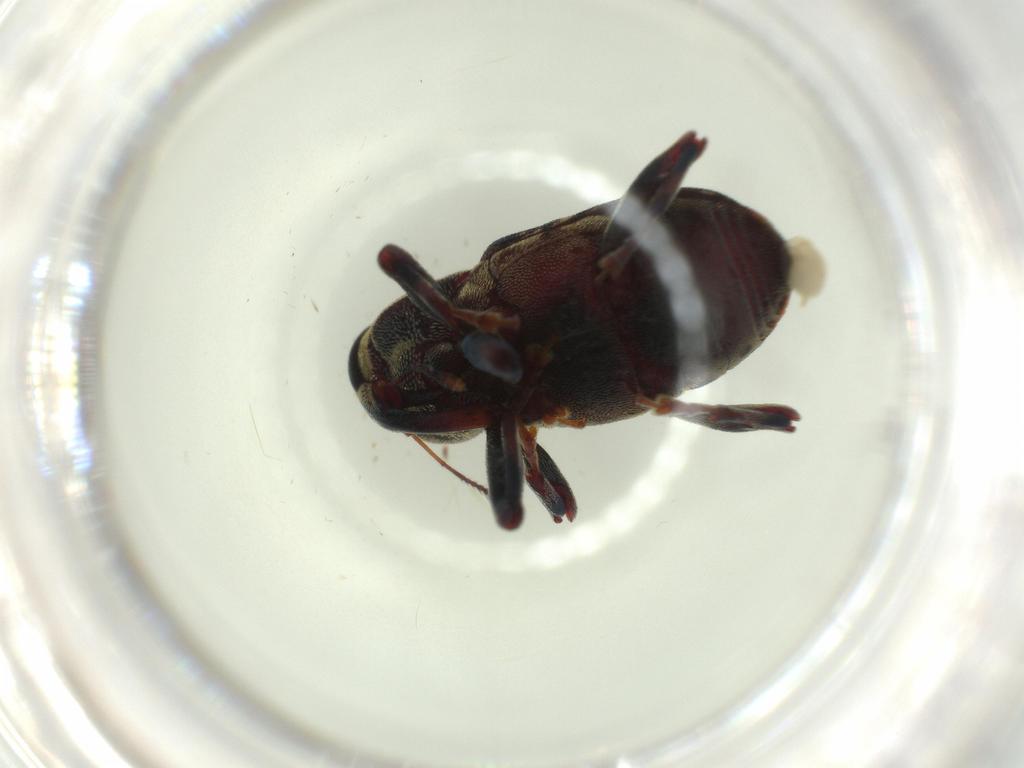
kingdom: Animalia
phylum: Arthropoda
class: Insecta
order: Coleoptera
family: Curculionidae
